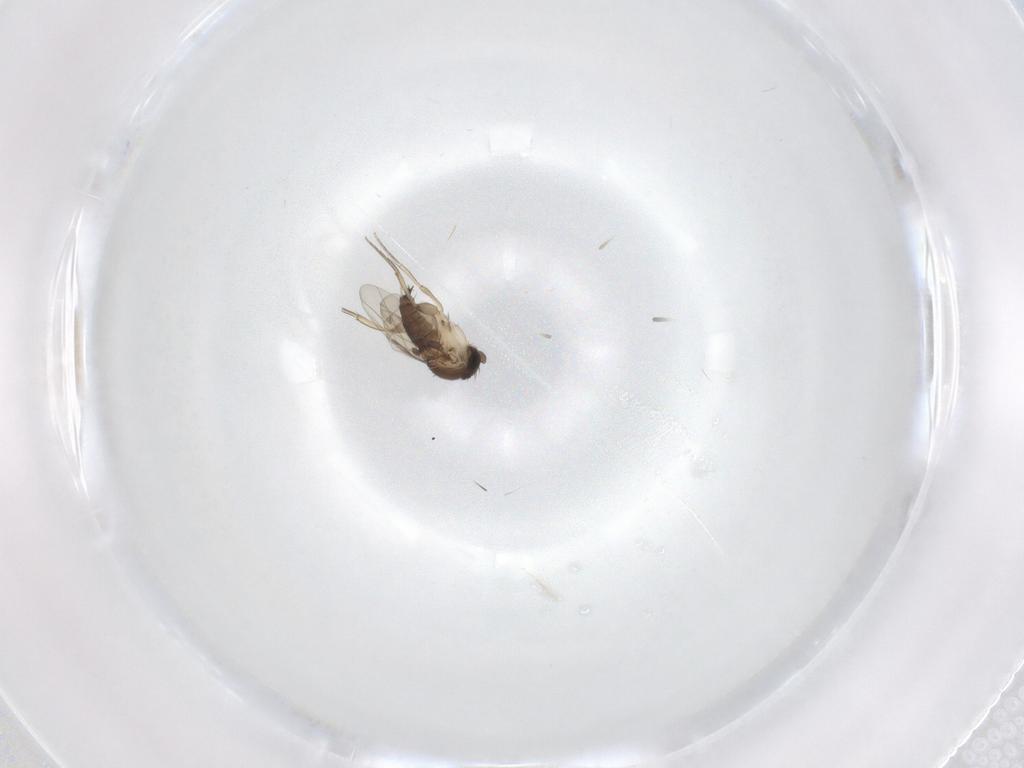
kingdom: Animalia
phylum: Arthropoda
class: Insecta
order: Diptera
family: Phoridae
